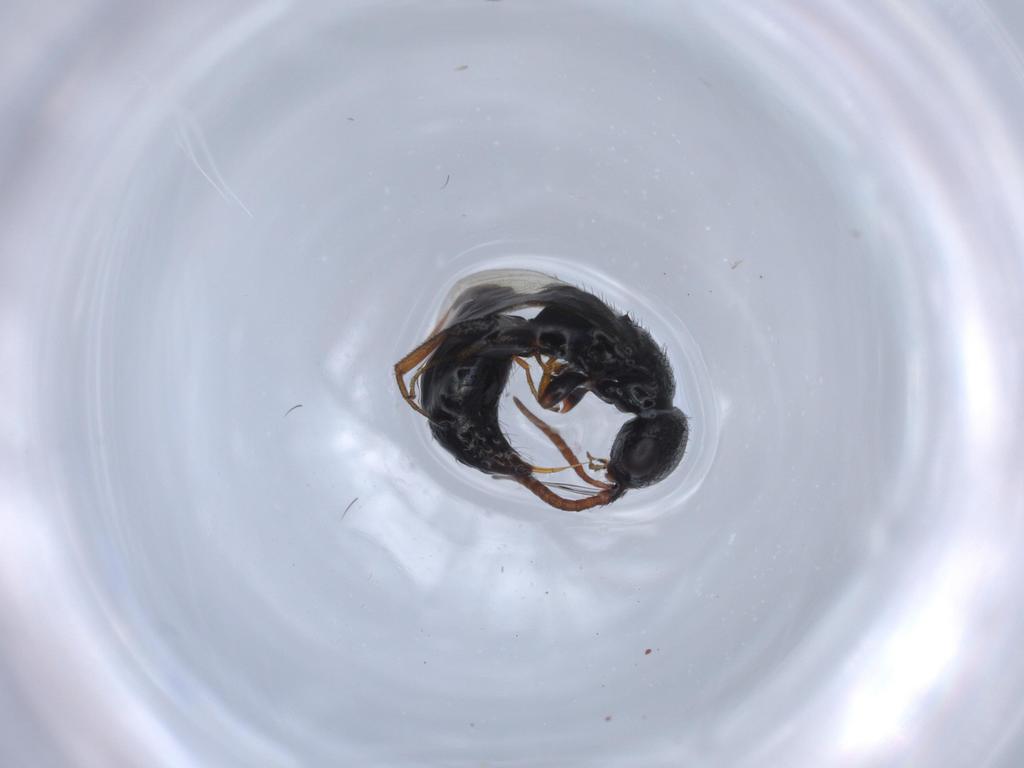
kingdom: Animalia
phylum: Arthropoda
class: Insecta
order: Hymenoptera
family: Bethylidae
